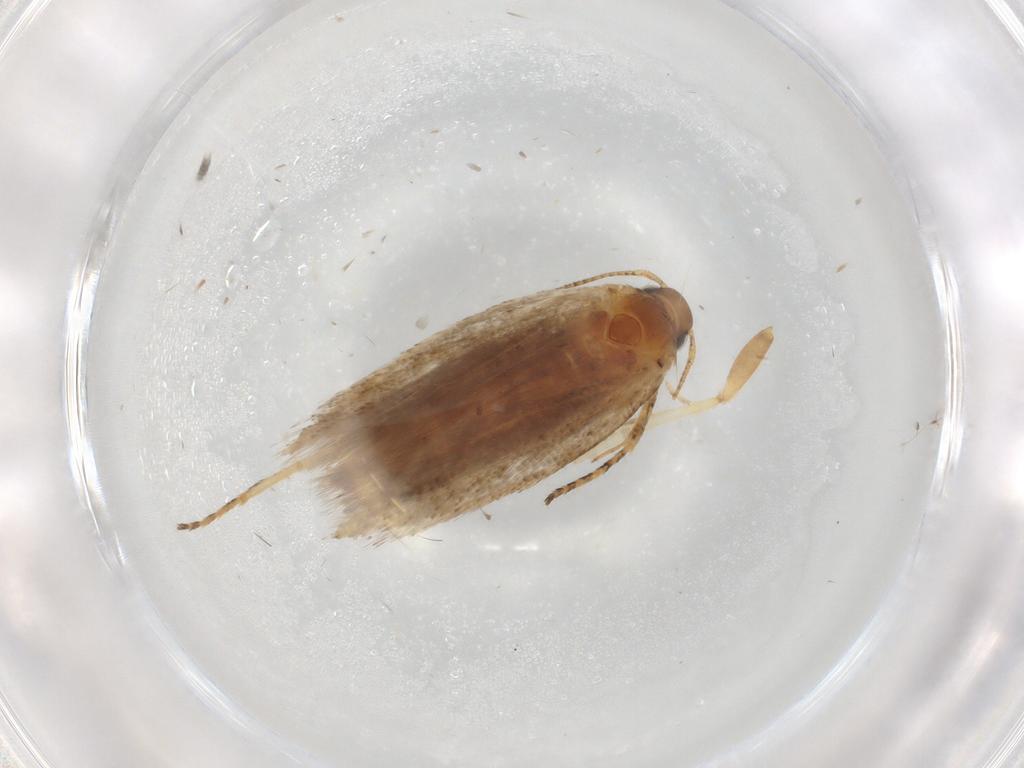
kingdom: Animalia
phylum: Arthropoda
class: Insecta
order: Lepidoptera
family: Gelechiidae
